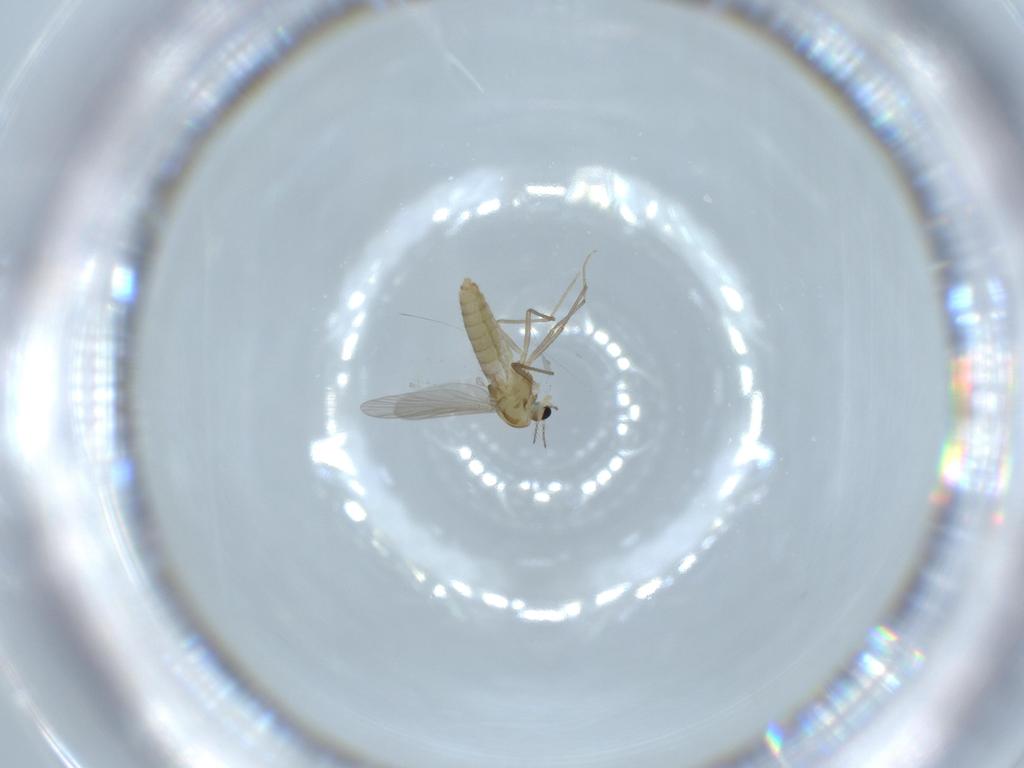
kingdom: Animalia
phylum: Arthropoda
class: Insecta
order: Diptera
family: Chironomidae
